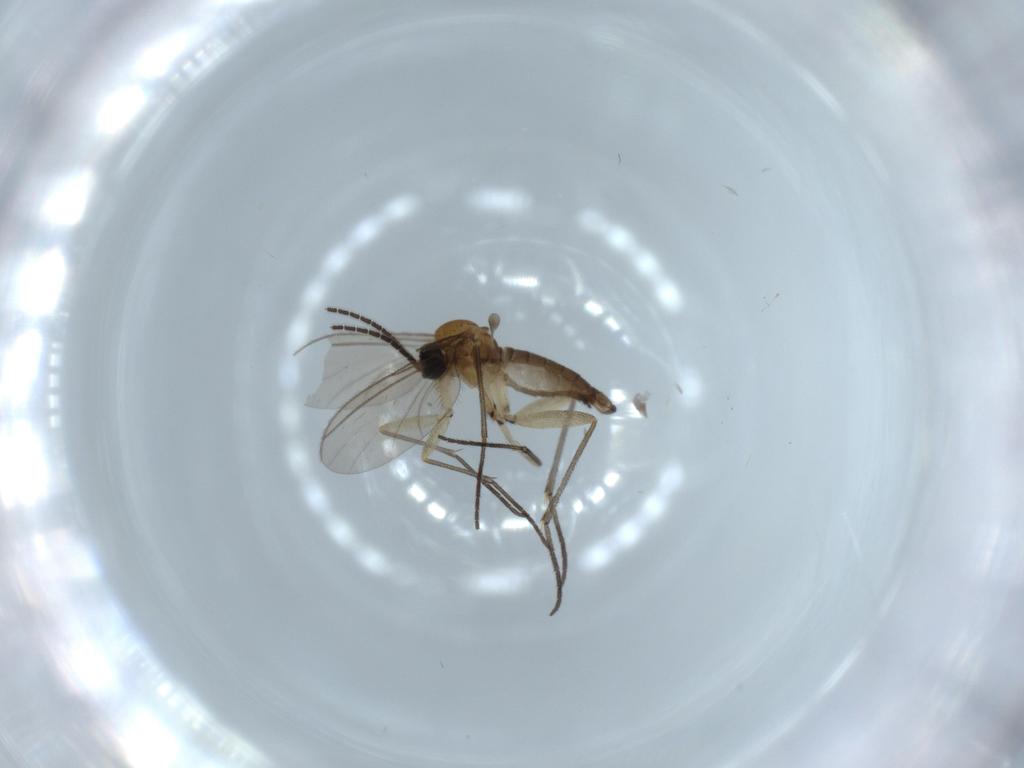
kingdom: Animalia
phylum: Arthropoda
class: Insecta
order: Diptera
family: Sciaridae
